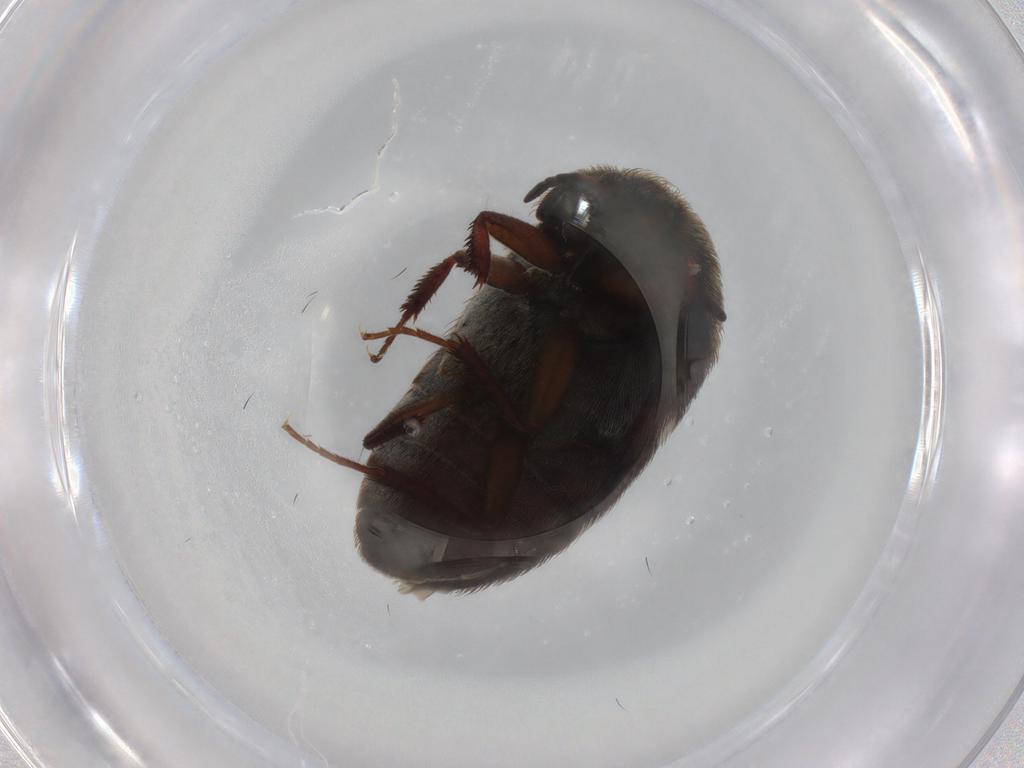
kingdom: Animalia
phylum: Arthropoda
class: Insecta
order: Coleoptera
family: Dermestidae
